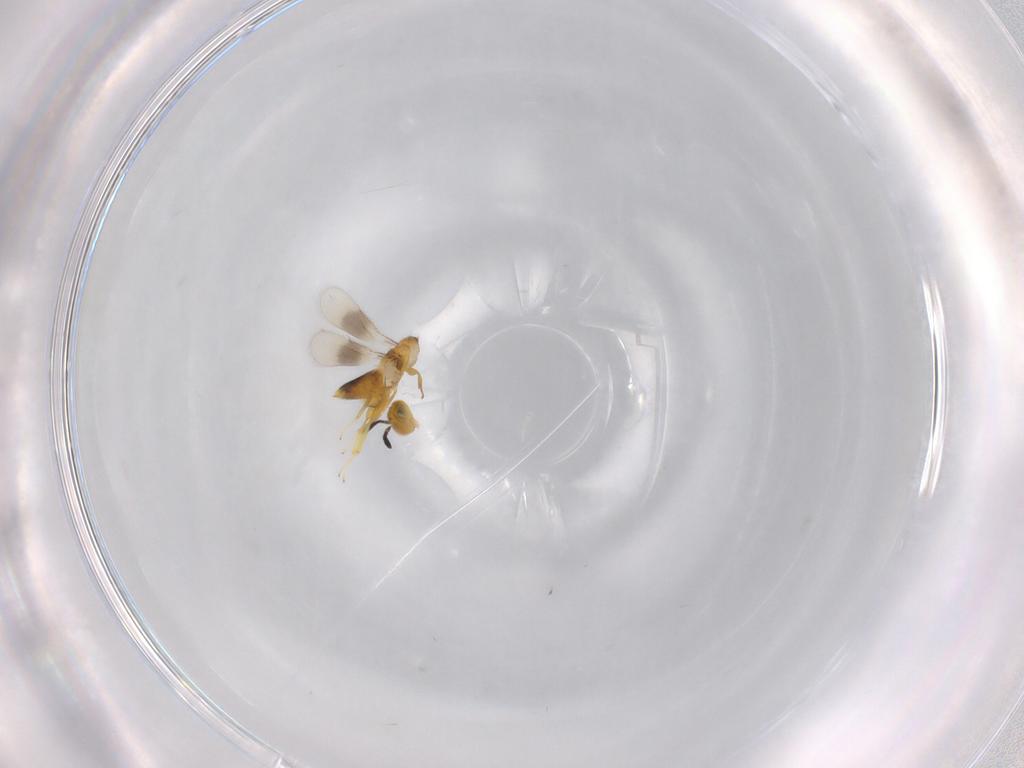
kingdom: Animalia
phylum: Arthropoda
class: Insecta
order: Hymenoptera
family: Encyrtidae
